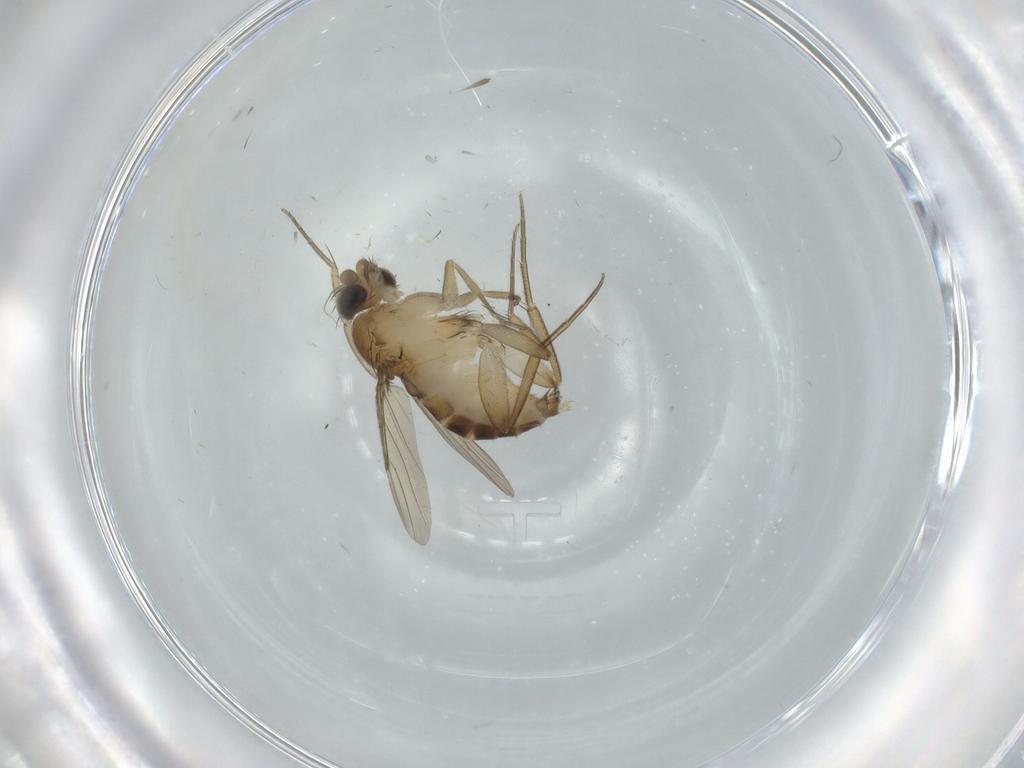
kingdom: Animalia
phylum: Arthropoda
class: Insecta
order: Diptera
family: Phoridae
